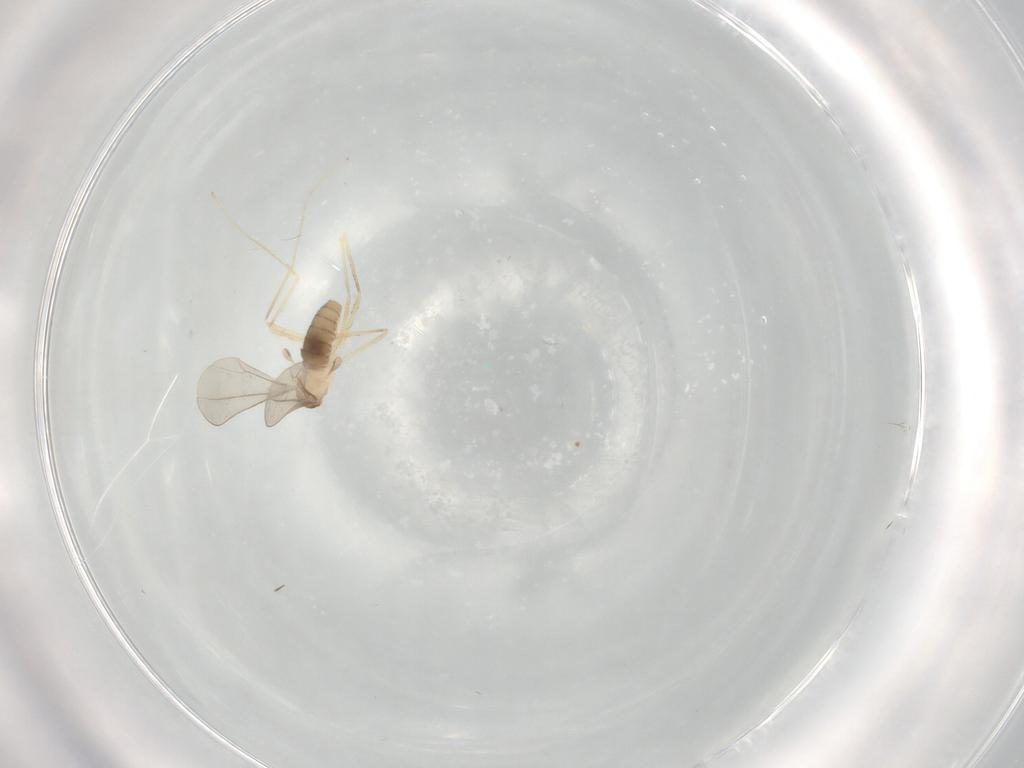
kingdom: Animalia
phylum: Arthropoda
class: Insecta
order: Diptera
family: Cecidomyiidae
